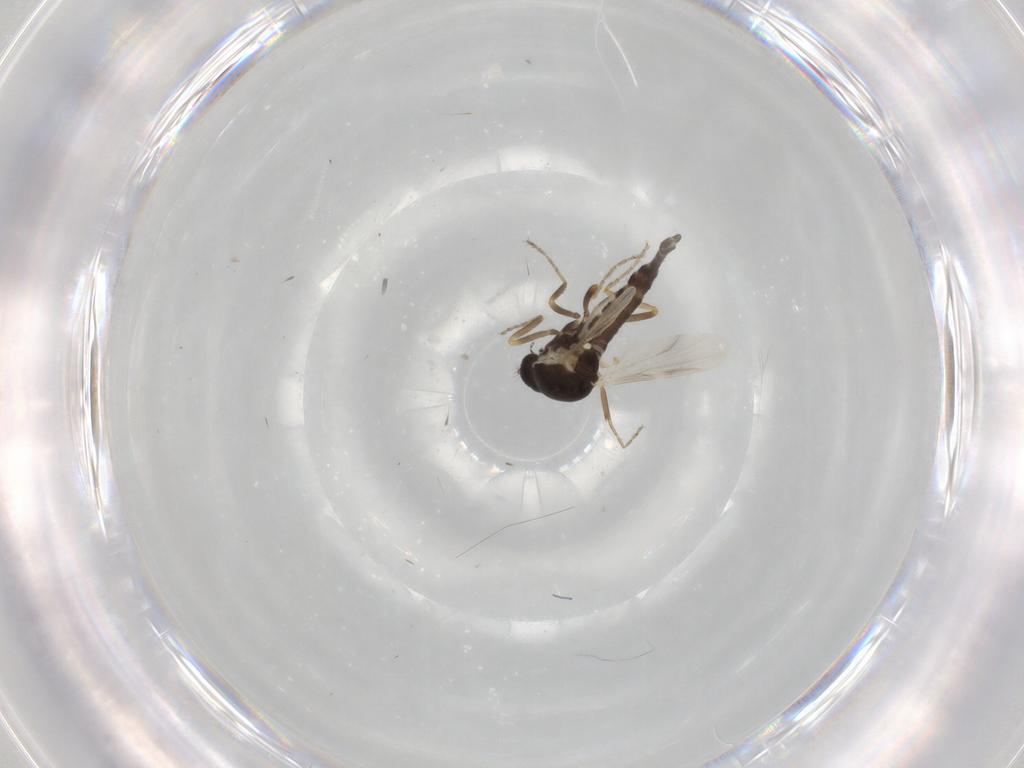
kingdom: Animalia
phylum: Arthropoda
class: Insecta
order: Diptera
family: Ceratopogonidae
